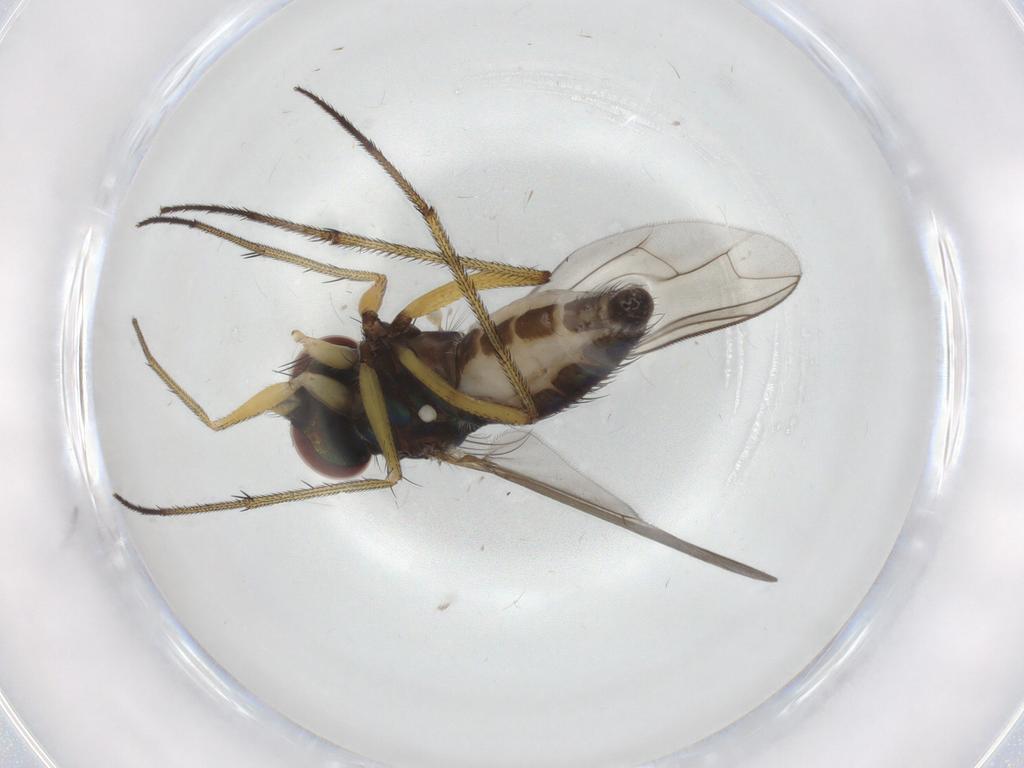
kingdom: Animalia
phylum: Arthropoda
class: Insecta
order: Diptera
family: Dolichopodidae
